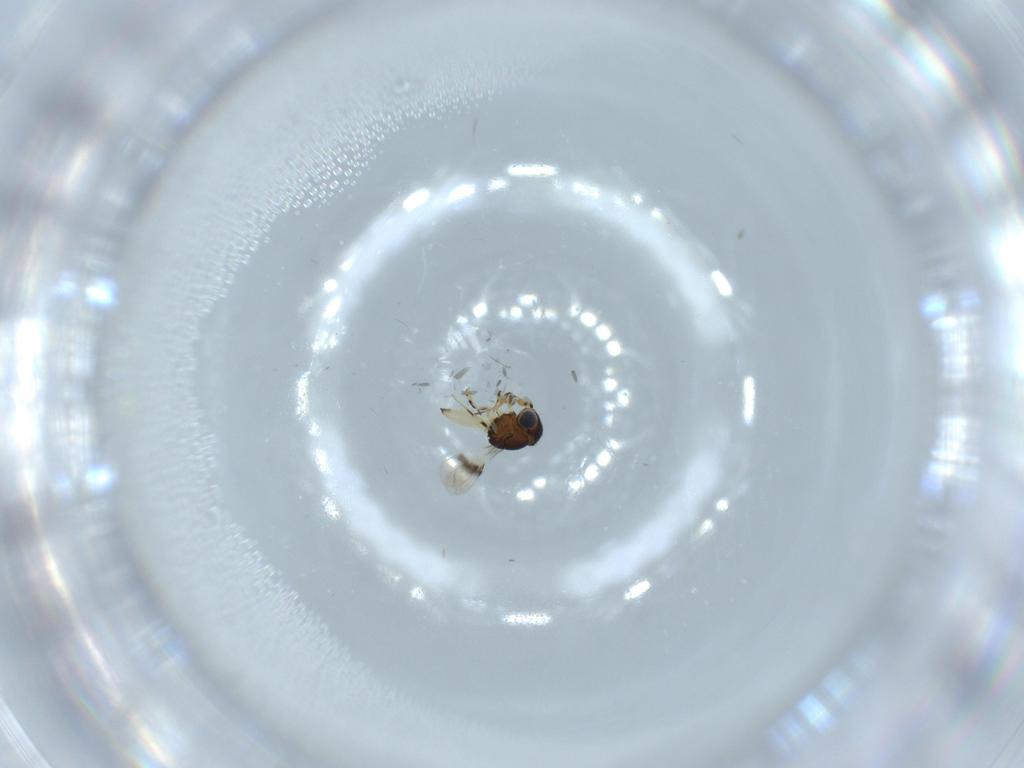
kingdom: Animalia
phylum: Arthropoda
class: Insecta
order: Hymenoptera
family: Scelionidae
